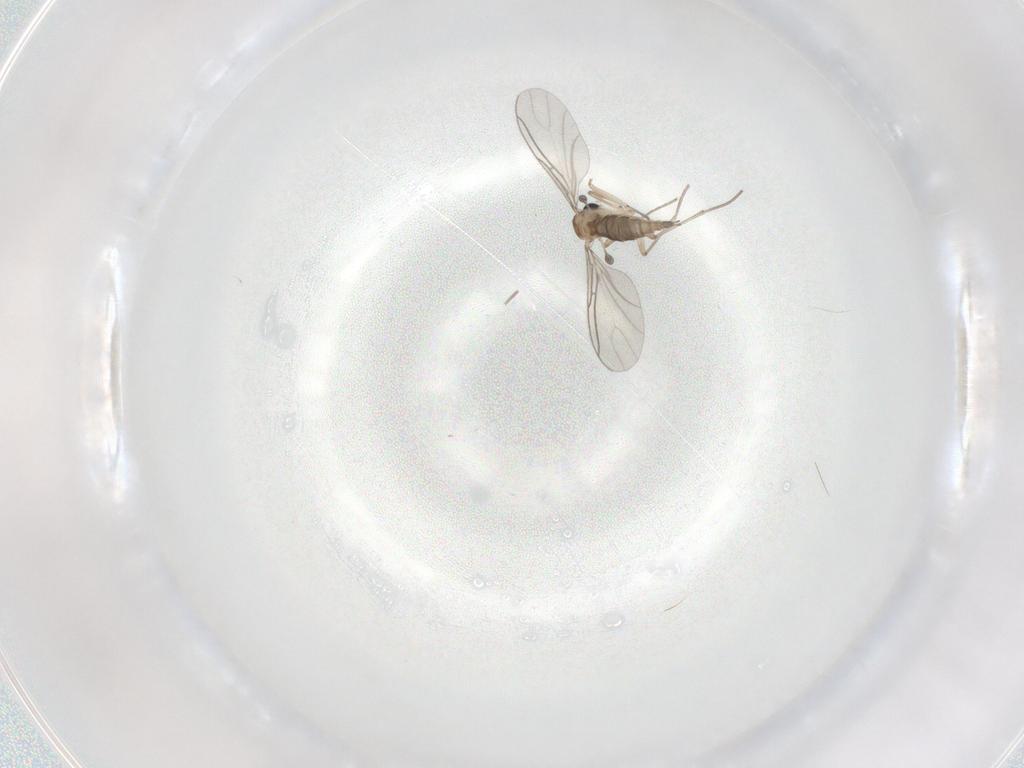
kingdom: Animalia
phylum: Arthropoda
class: Insecta
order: Diptera
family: Sciaridae
